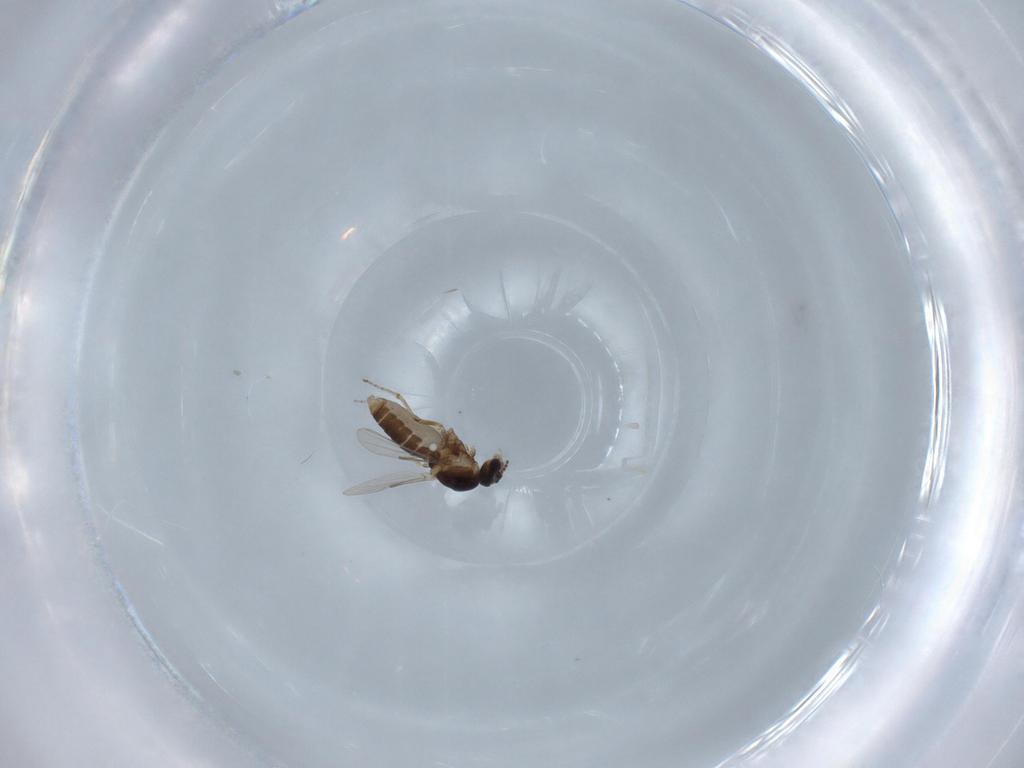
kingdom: Animalia
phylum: Arthropoda
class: Insecta
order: Diptera
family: Ceratopogonidae
